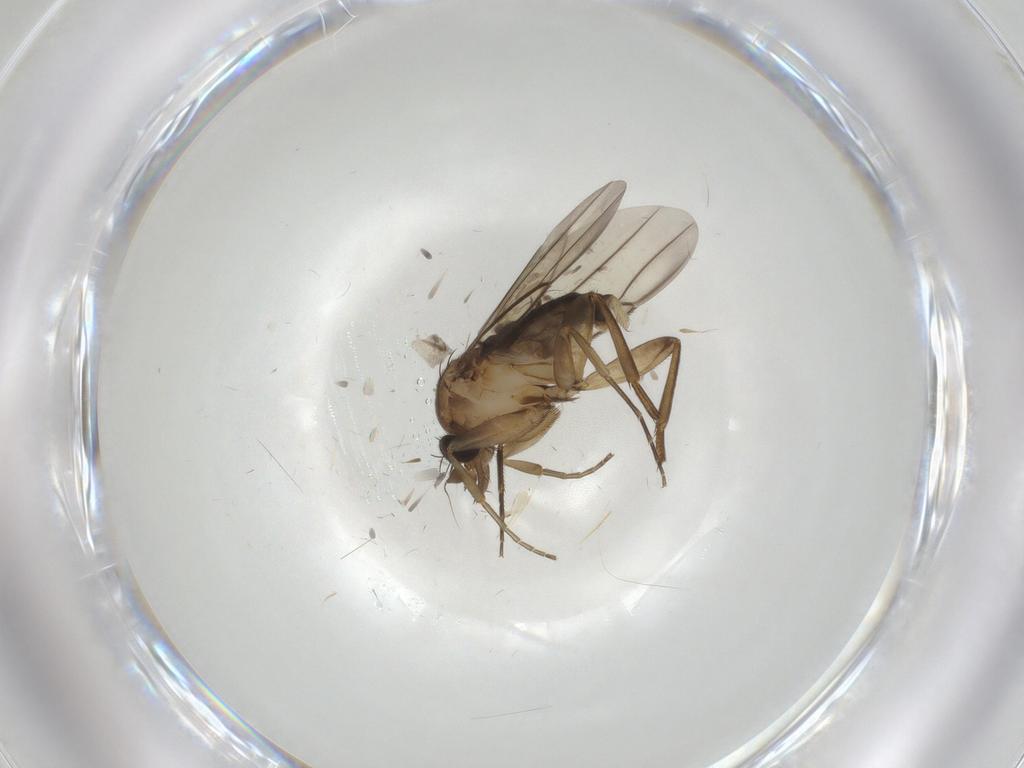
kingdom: Animalia
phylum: Arthropoda
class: Insecta
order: Diptera
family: Phoridae
